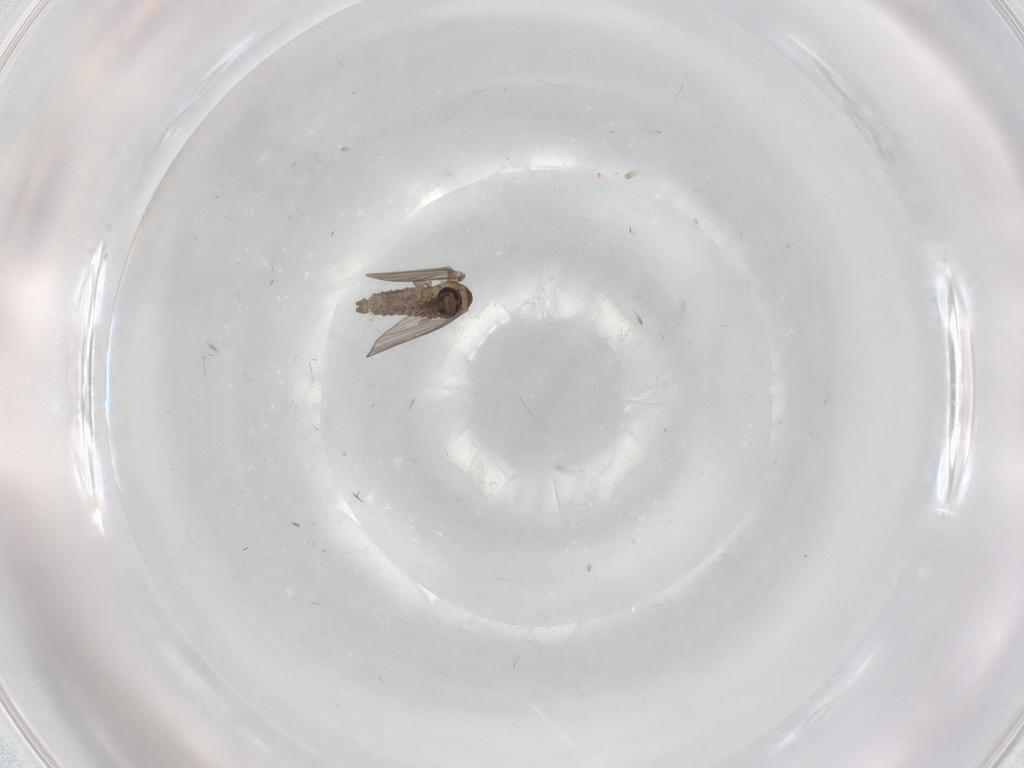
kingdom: Animalia
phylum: Arthropoda
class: Insecta
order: Diptera
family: Psychodidae
